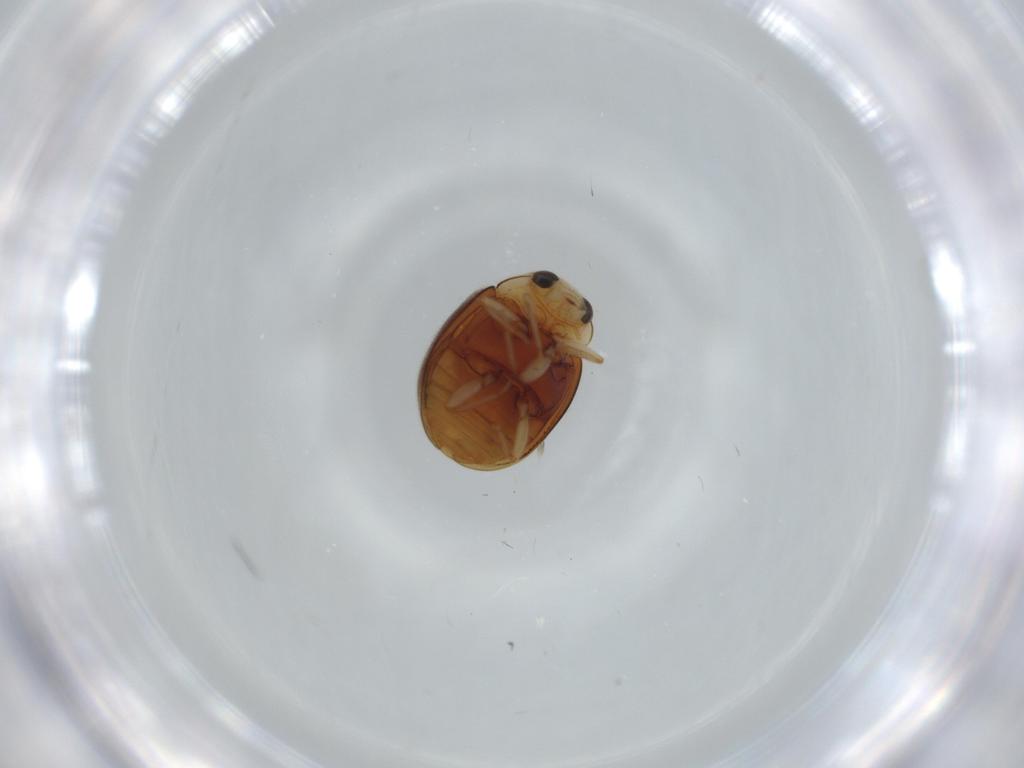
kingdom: Animalia
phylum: Arthropoda
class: Insecta
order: Coleoptera
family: Coccinellidae
